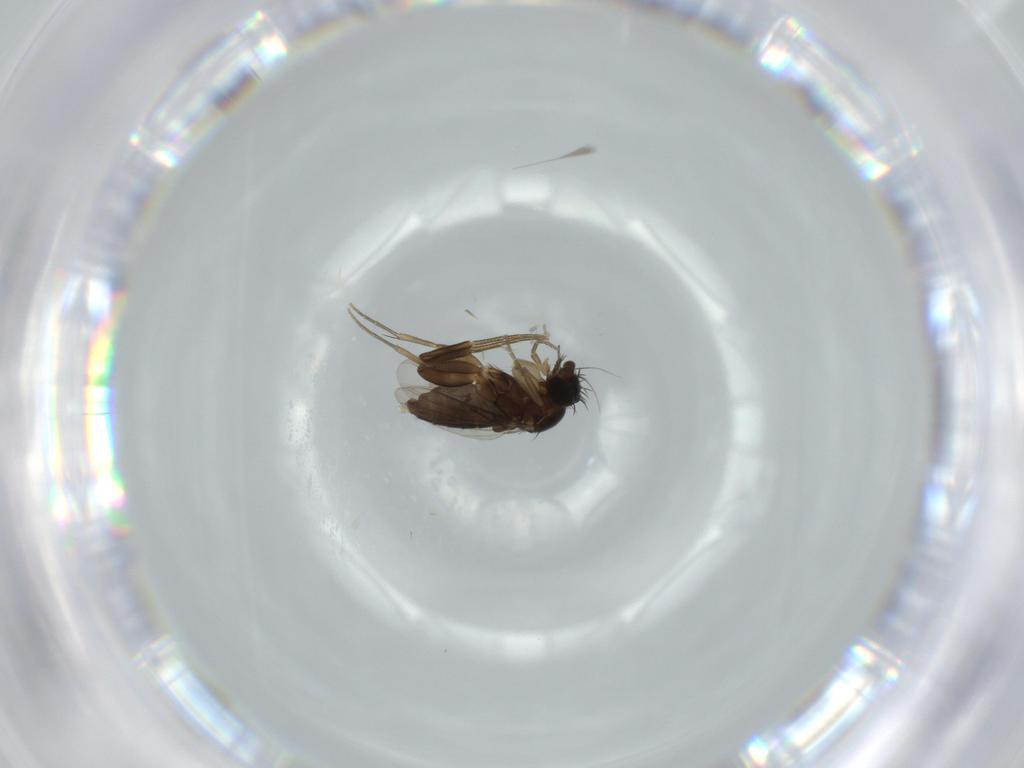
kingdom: Animalia
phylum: Arthropoda
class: Insecta
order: Diptera
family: Phoridae
